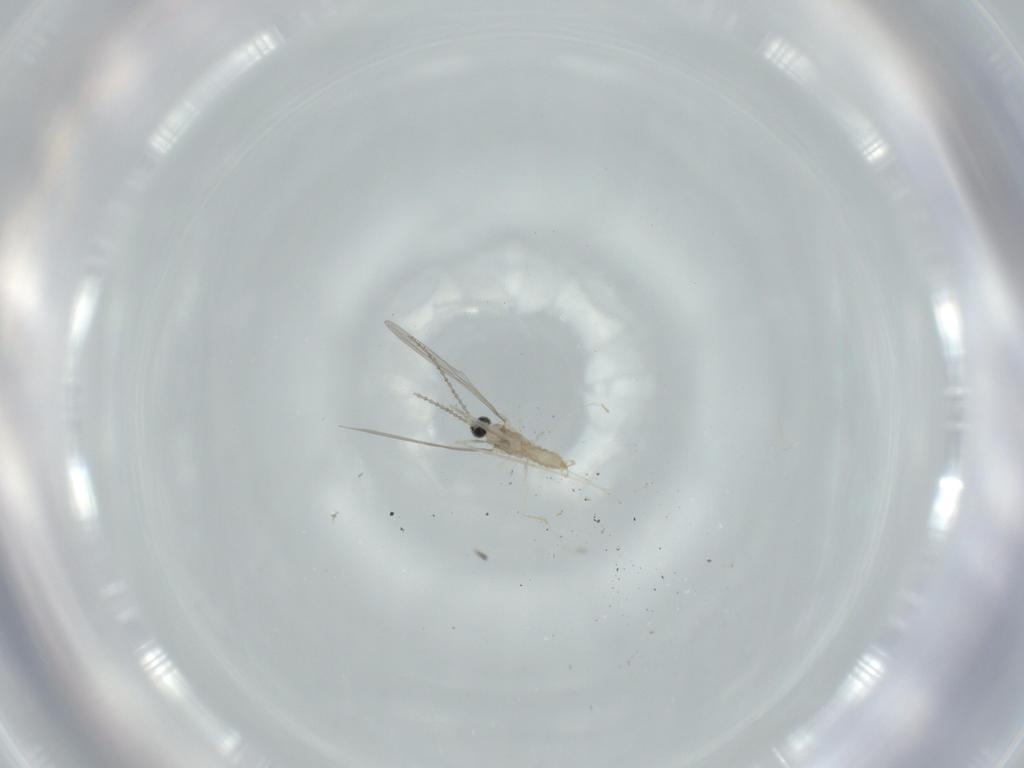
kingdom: Animalia
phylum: Arthropoda
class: Insecta
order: Diptera
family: Cecidomyiidae
